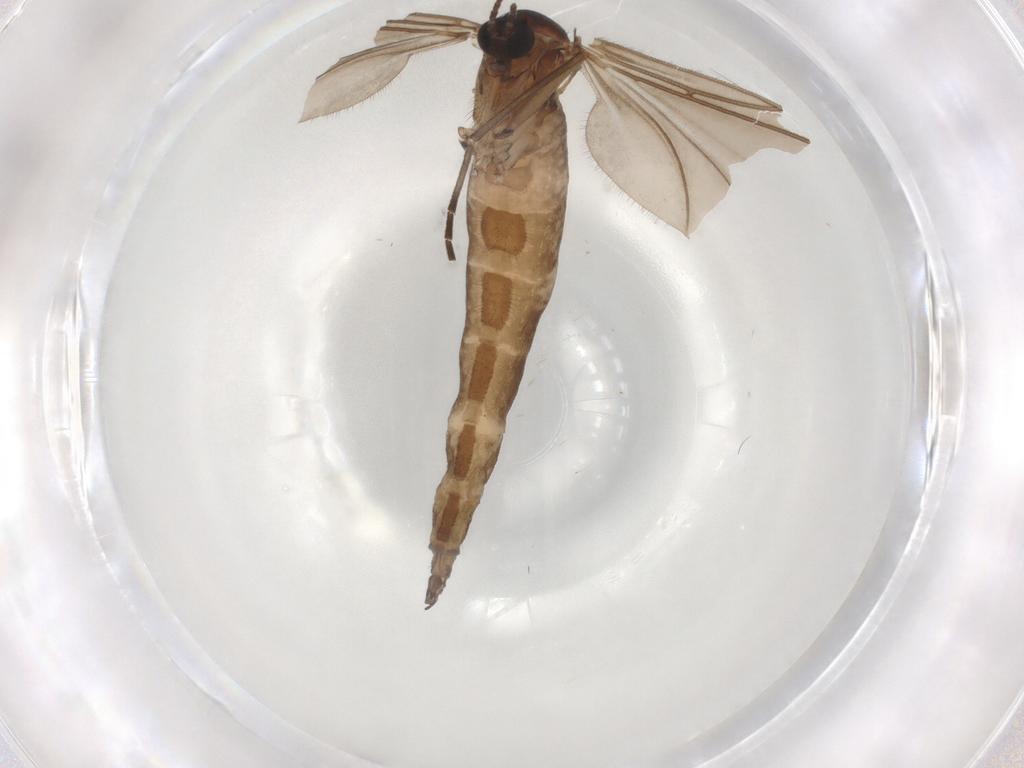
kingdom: Animalia
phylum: Arthropoda
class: Insecta
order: Diptera
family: Sciaridae
